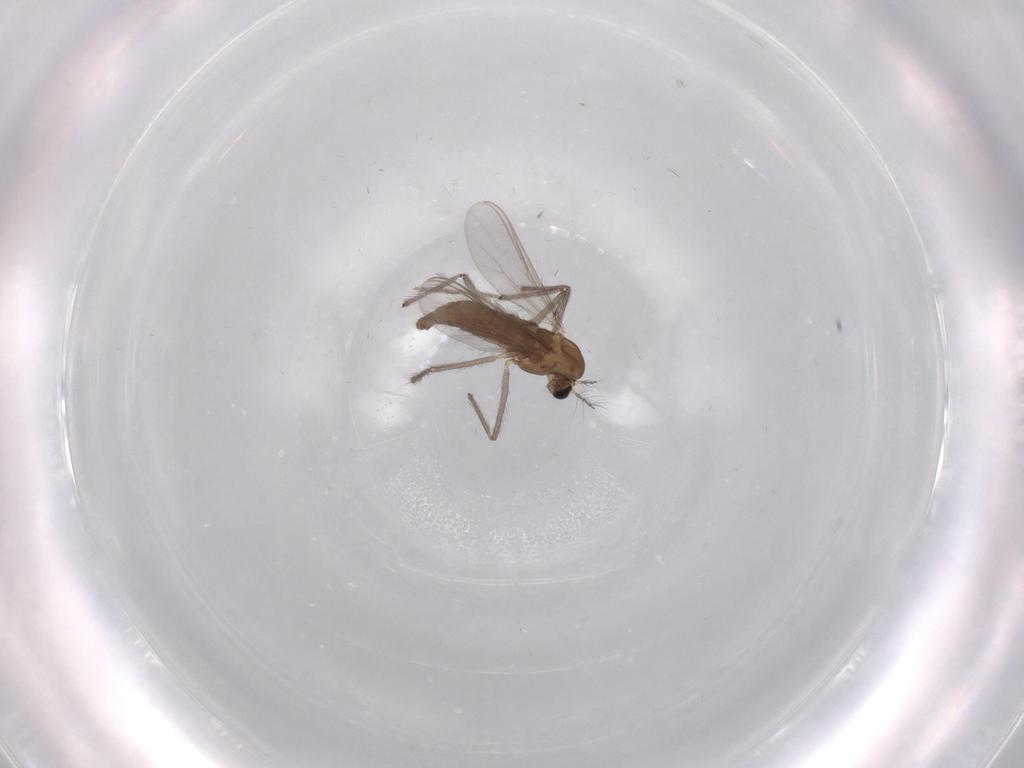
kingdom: Animalia
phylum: Arthropoda
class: Insecta
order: Diptera
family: Chironomidae
